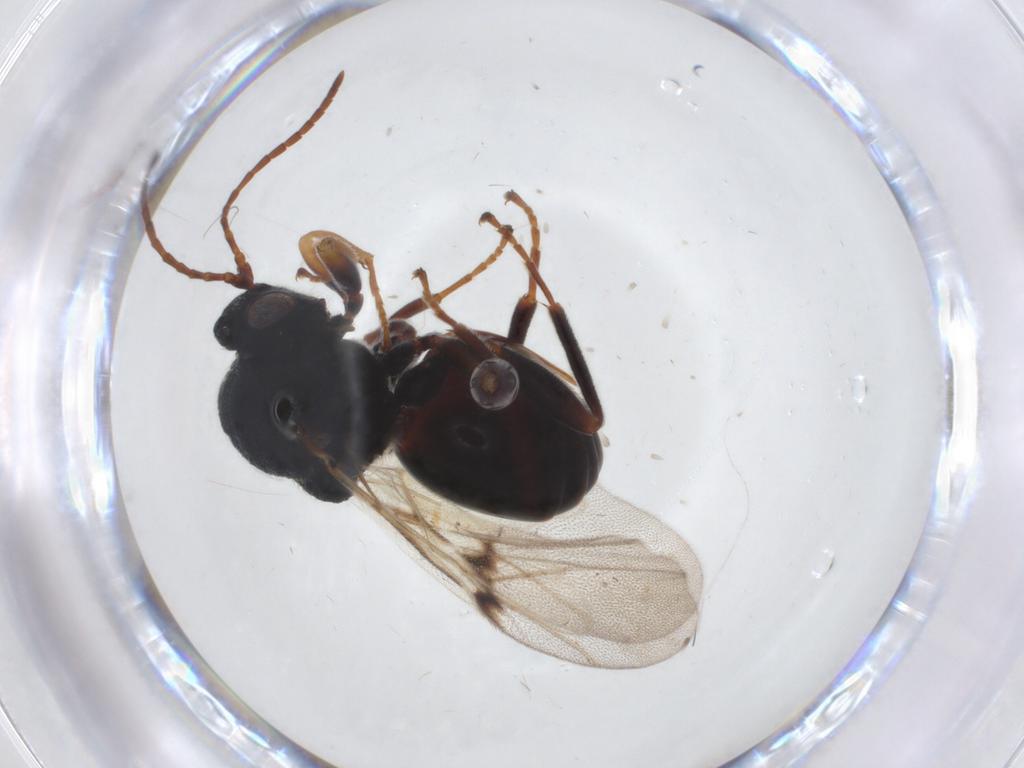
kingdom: Animalia
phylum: Arthropoda
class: Insecta
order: Hymenoptera
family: Cynipidae
